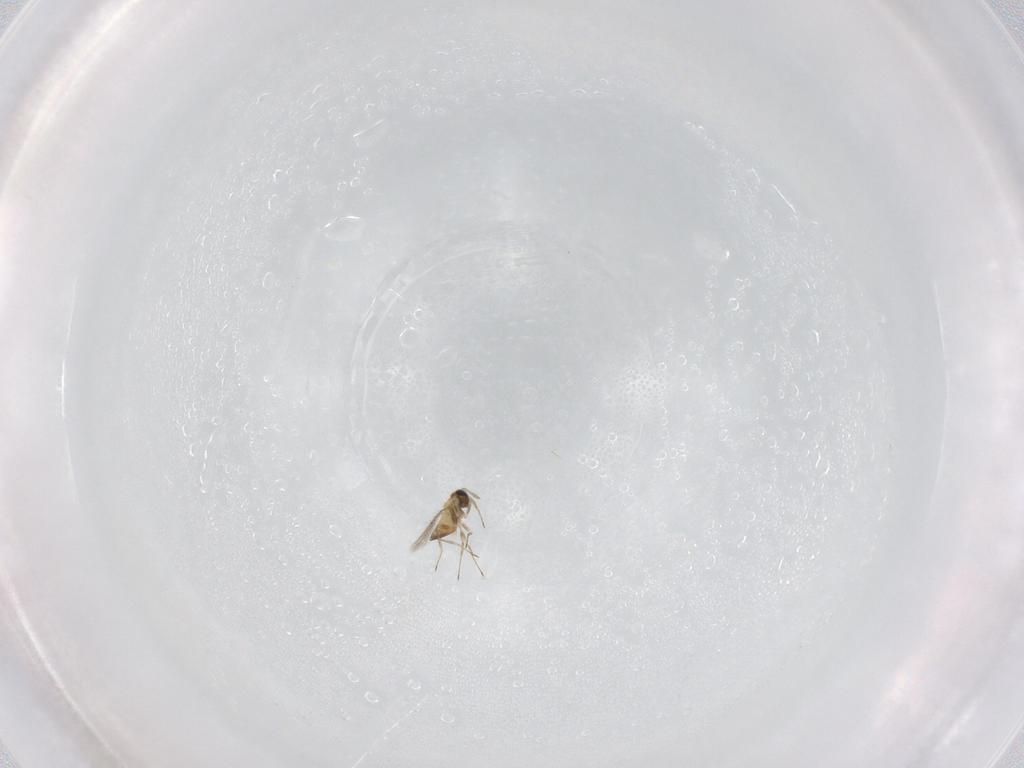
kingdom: Animalia
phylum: Arthropoda
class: Insecta
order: Hymenoptera
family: Trichogrammatidae
